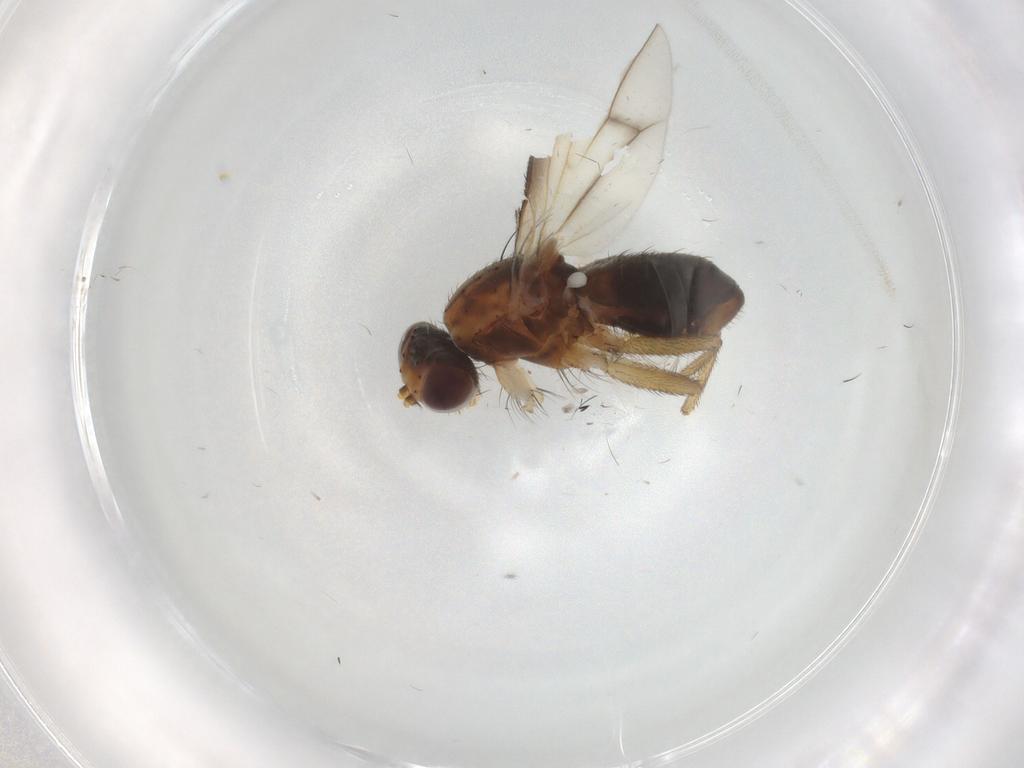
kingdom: Animalia
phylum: Arthropoda
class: Insecta
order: Diptera
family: Heleomyzidae
